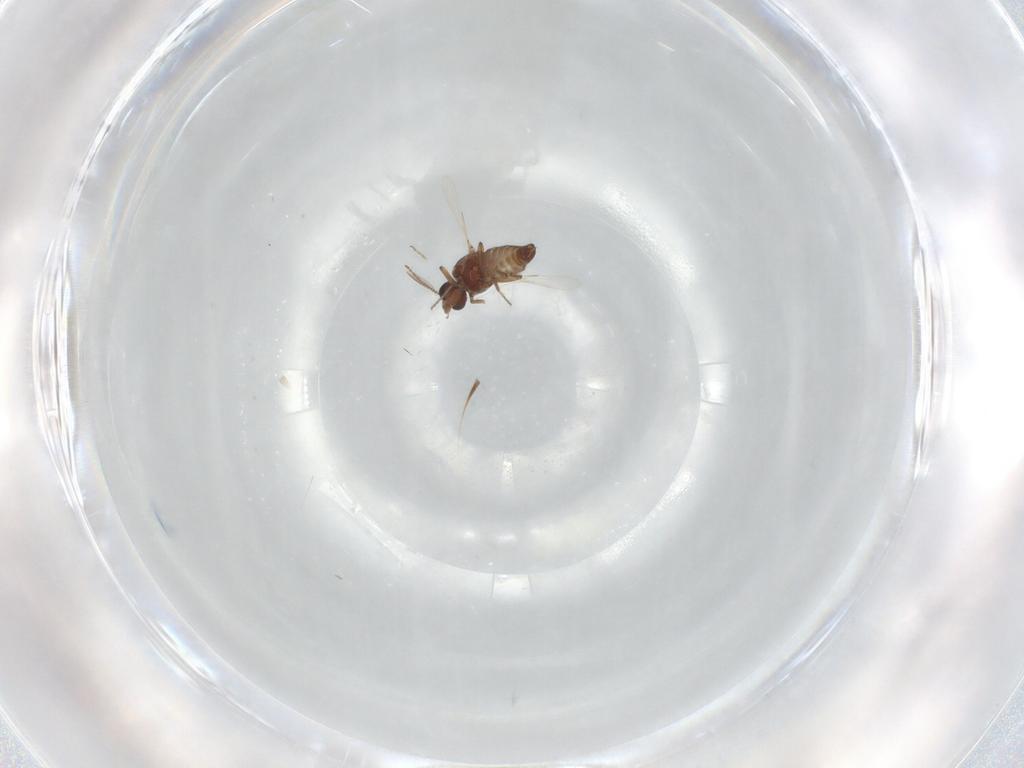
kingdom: Animalia
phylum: Arthropoda
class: Insecta
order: Diptera
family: Ceratopogonidae
